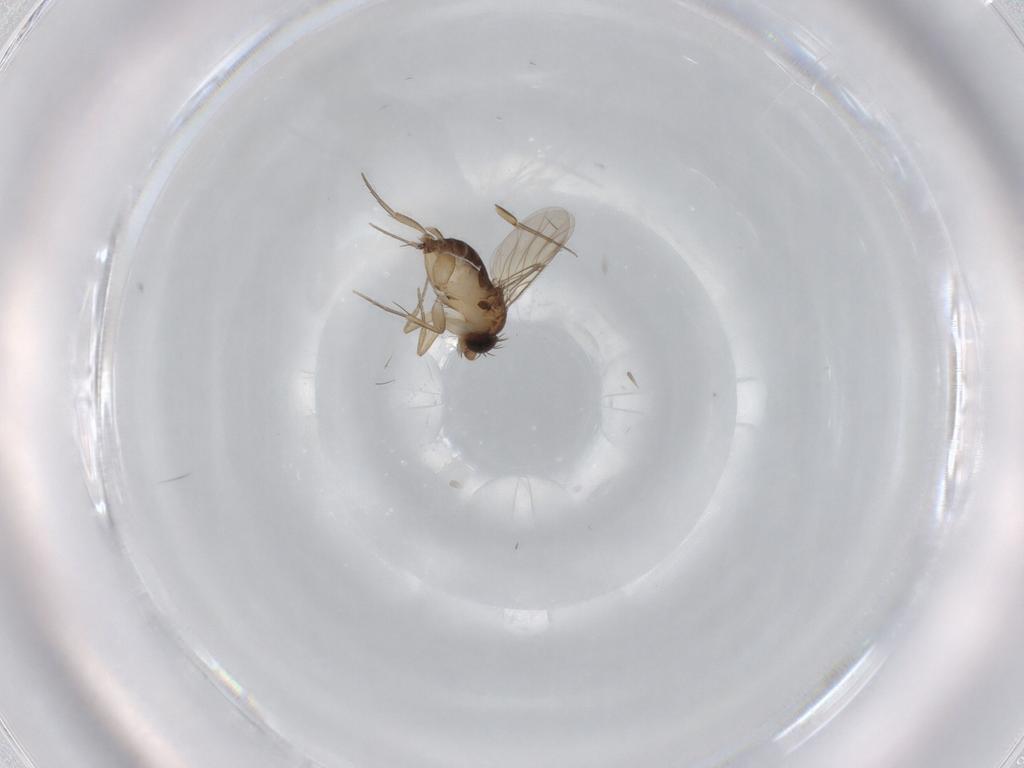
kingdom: Animalia
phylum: Arthropoda
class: Insecta
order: Diptera
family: Phoridae
